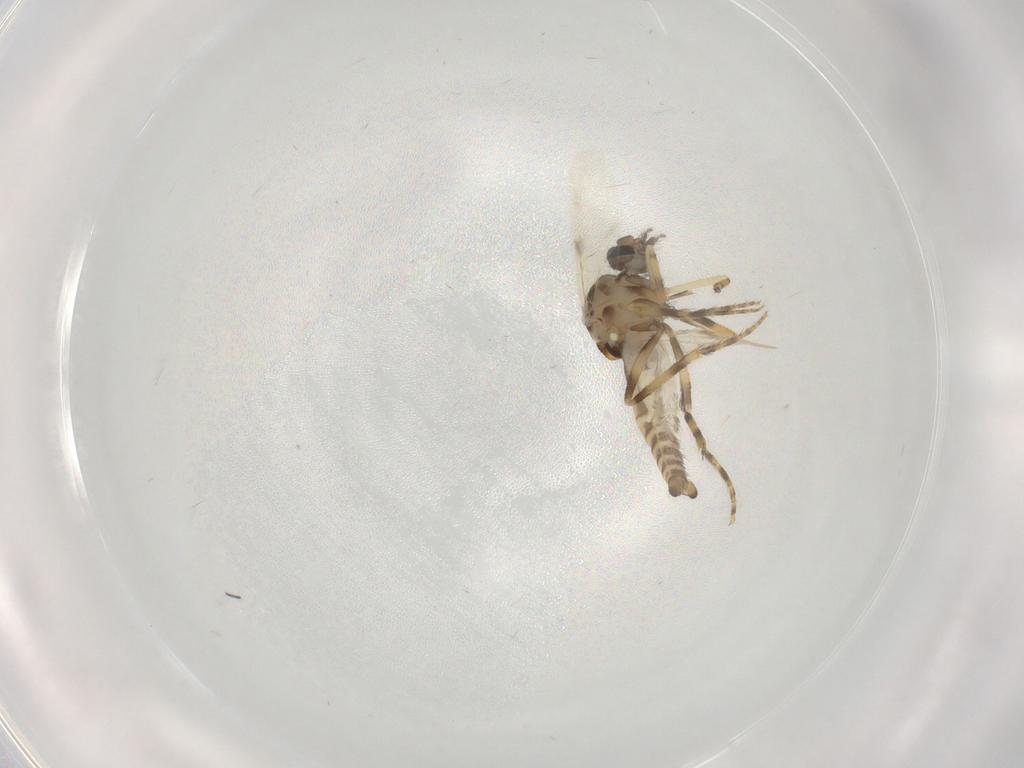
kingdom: Animalia
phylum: Arthropoda
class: Insecta
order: Diptera
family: Ceratopogonidae
